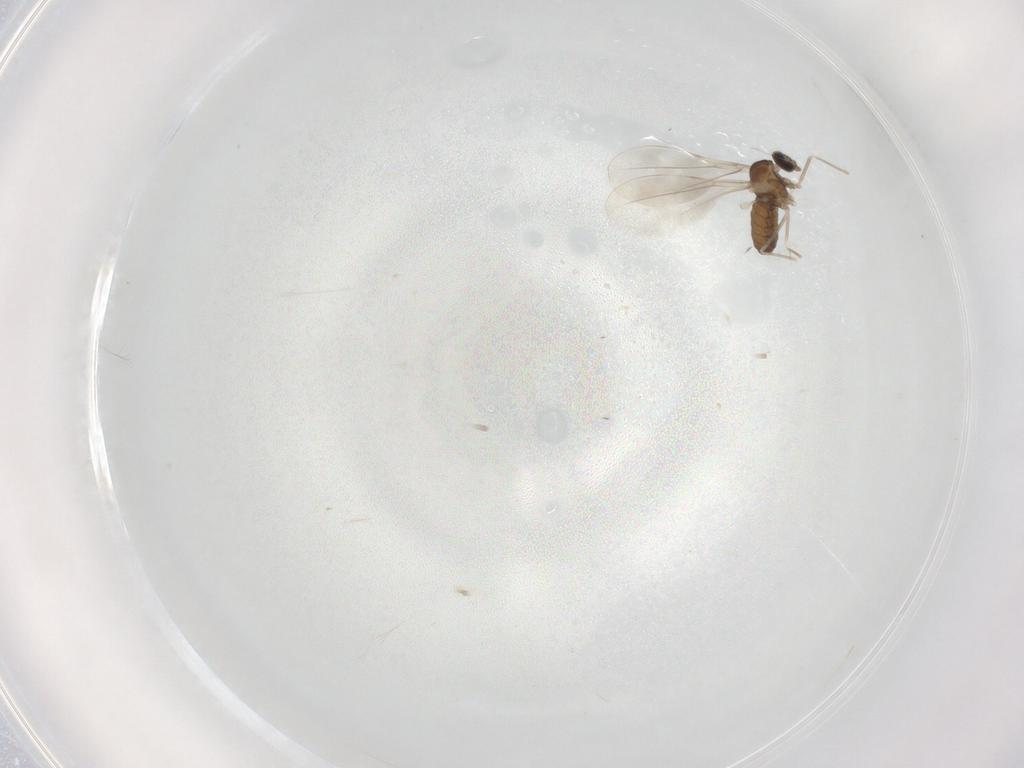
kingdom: Animalia
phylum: Arthropoda
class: Insecta
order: Diptera
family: Cecidomyiidae
